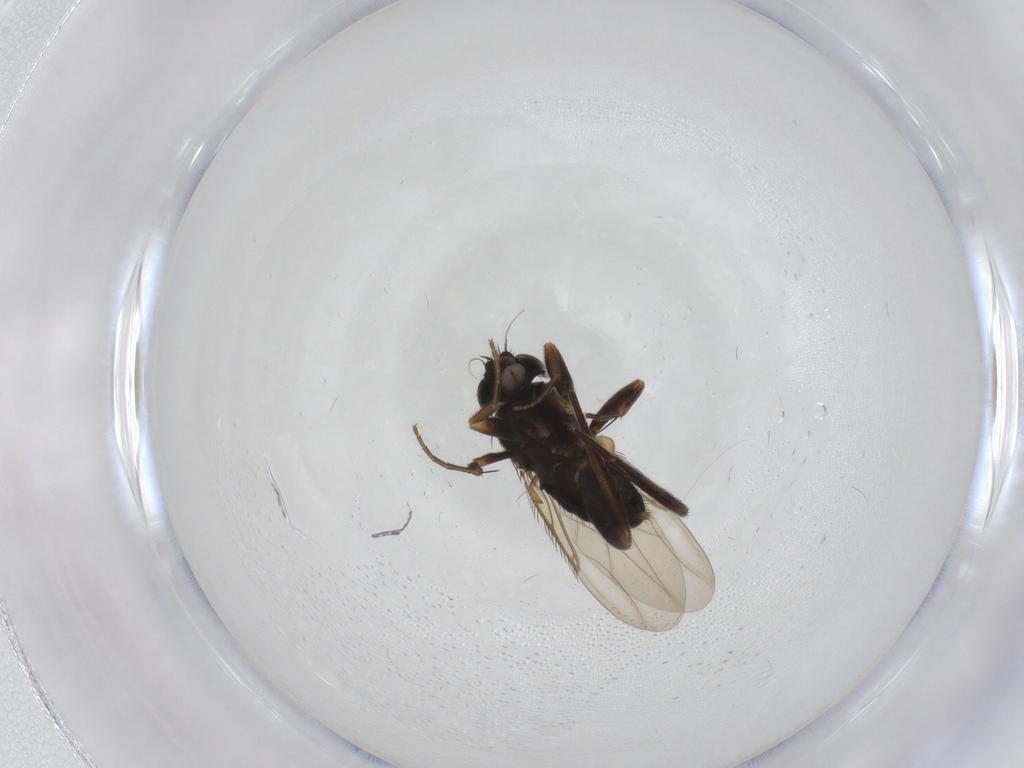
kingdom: Animalia
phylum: Arthropoda
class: Insecta
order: Diptera
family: Phoridae
